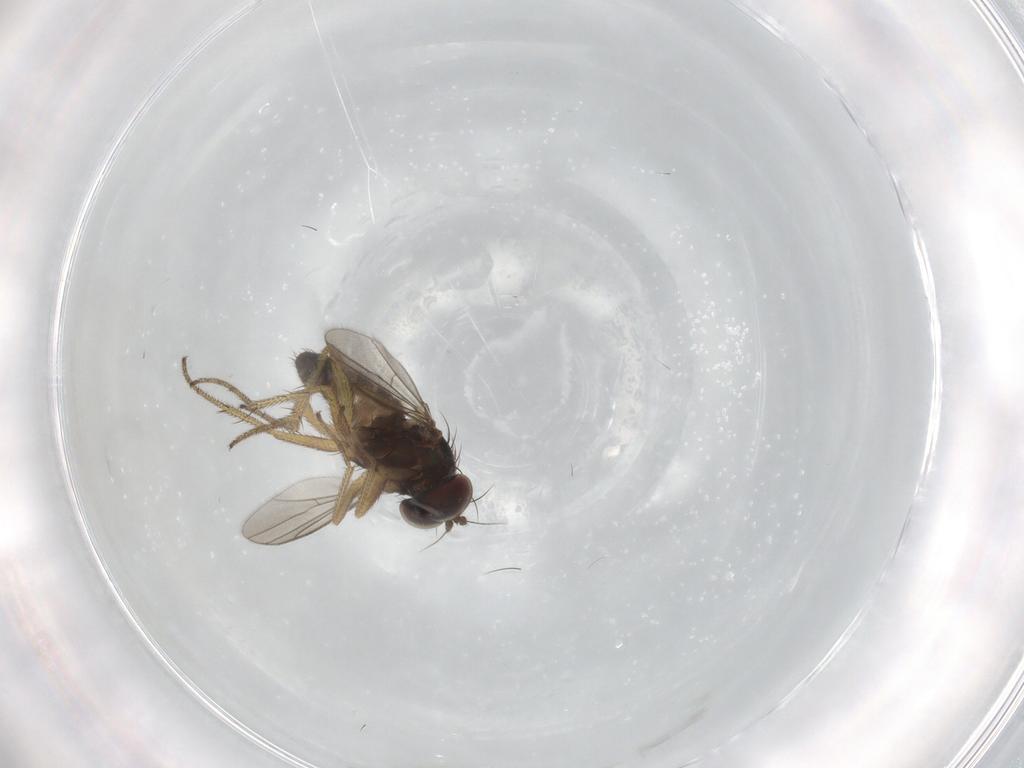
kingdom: Animalia
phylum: Arthropoda
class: Insecta
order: Diptera
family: Dolichopodidae
